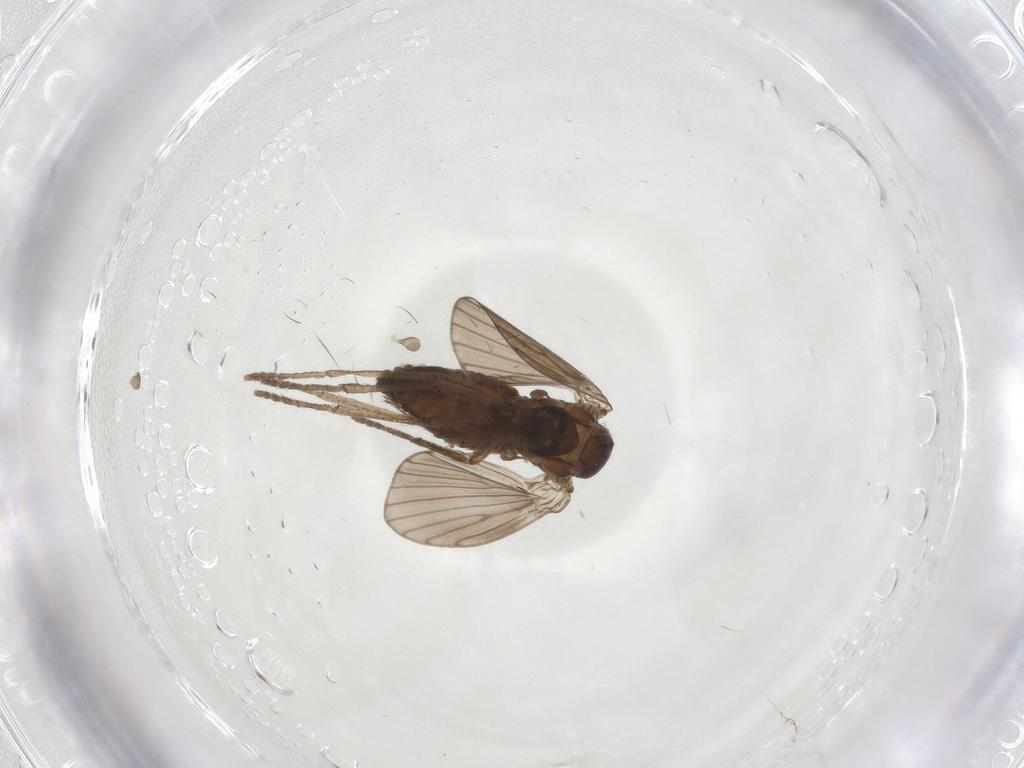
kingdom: Animalia
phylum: Arthropoda
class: Insecta
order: Diptera
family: Psychodidae
